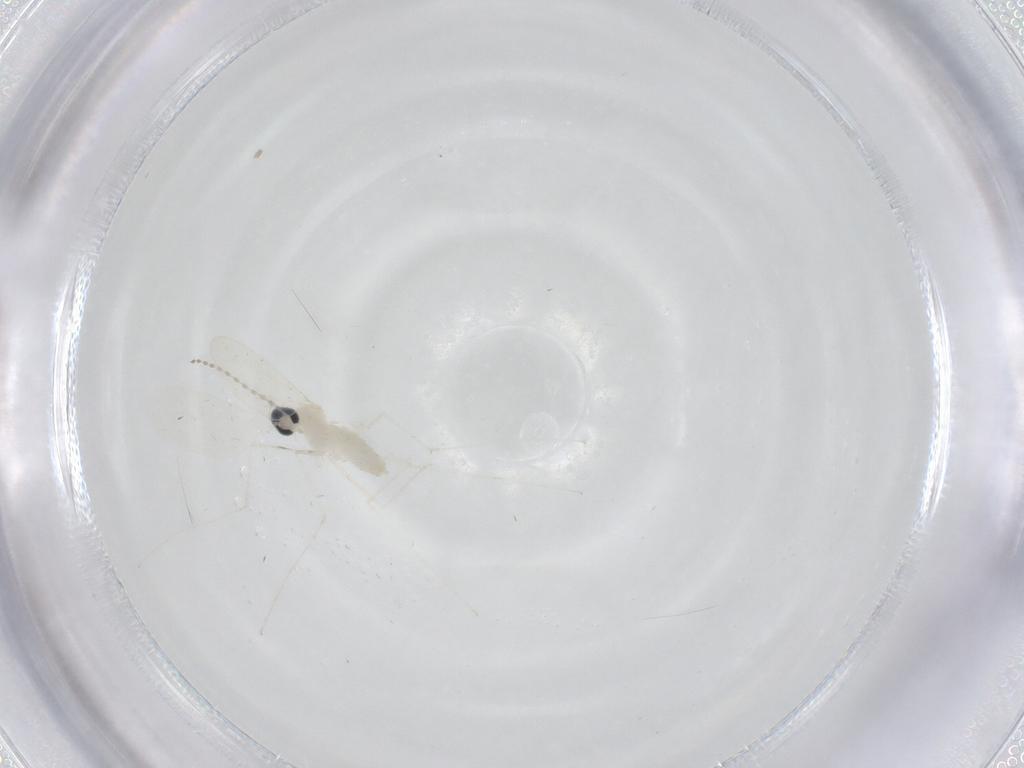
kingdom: Animalia
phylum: Arthropoda
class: Insecta
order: Diptera
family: Cecidomyiidae
